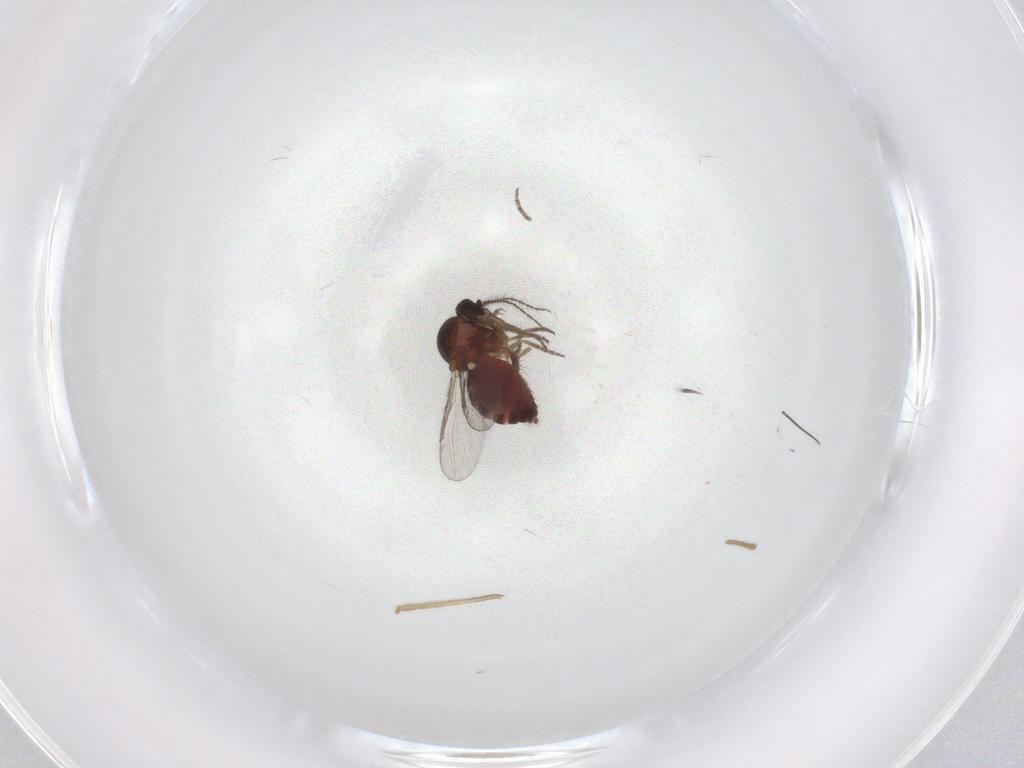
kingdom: Animalia
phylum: Arthropoda
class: Insecta
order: Diptera
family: Chironomidae
